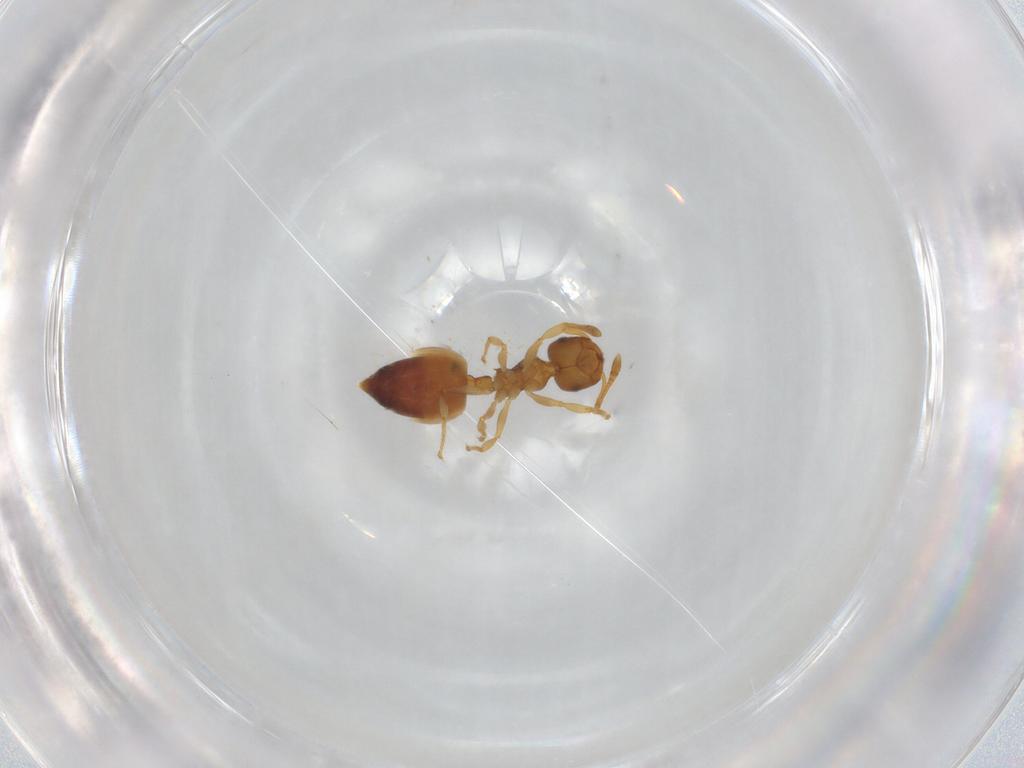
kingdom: Animalia
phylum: Arthropoda
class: Insecta
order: Hymenoptera
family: Formicidae
